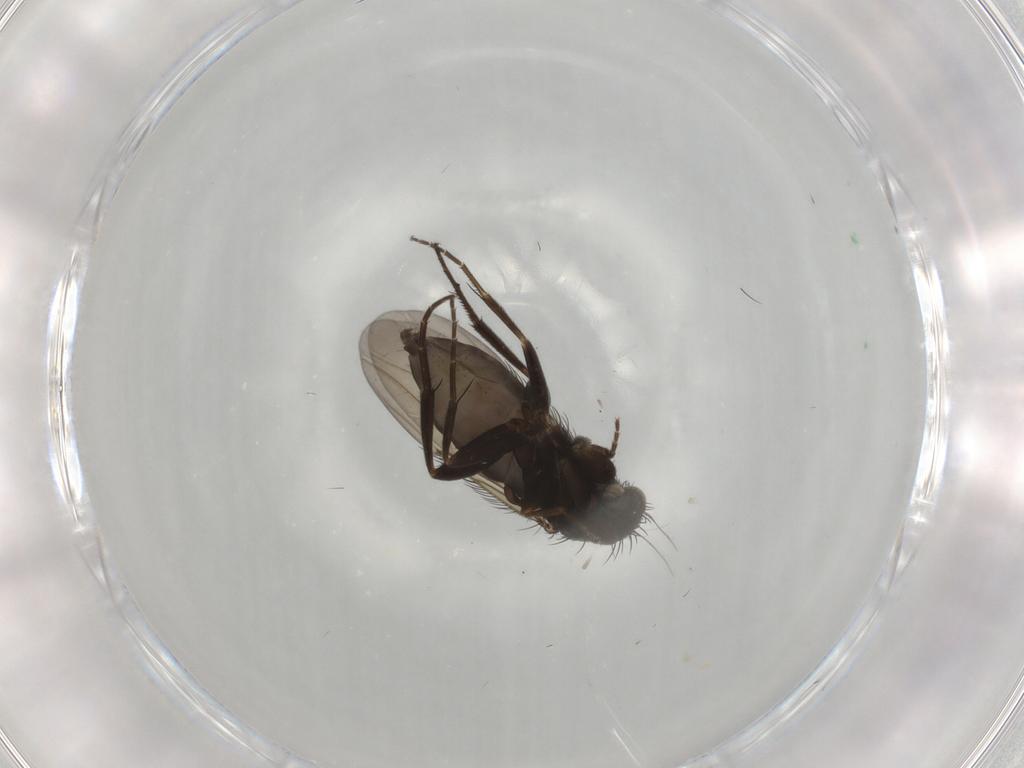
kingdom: Animalia
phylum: Arthropoda
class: Insecta
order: Diptera
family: Phoridae
